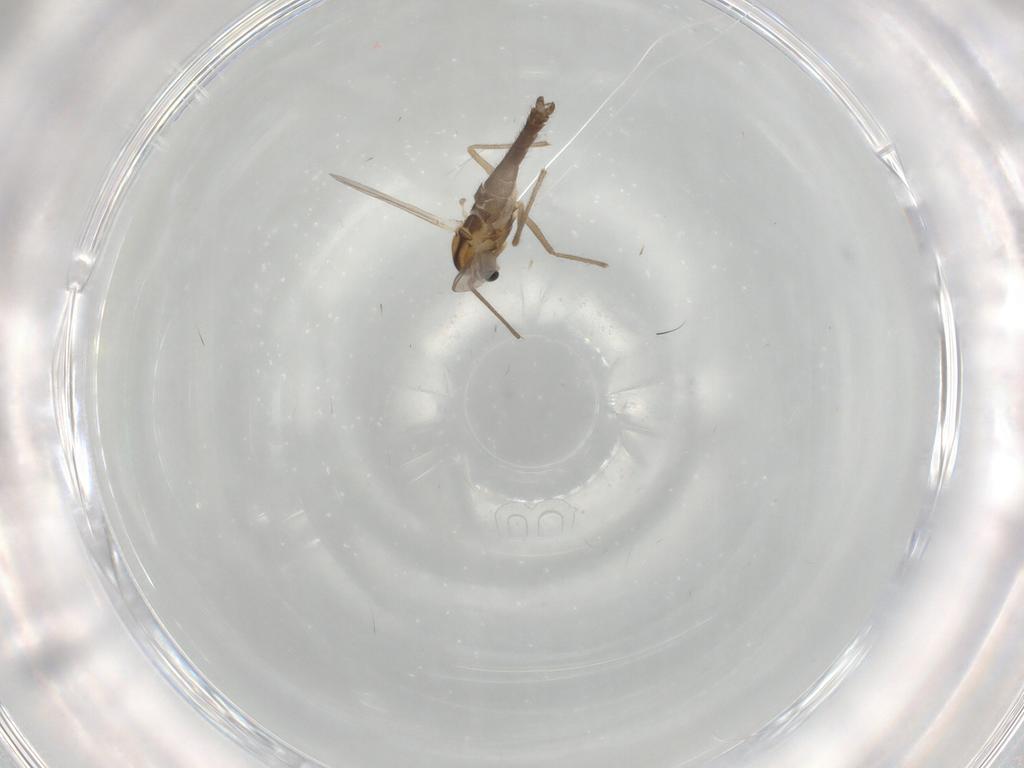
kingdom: Animalia
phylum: Arthropoda
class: Insecta
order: Diptera
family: Chironomidae
